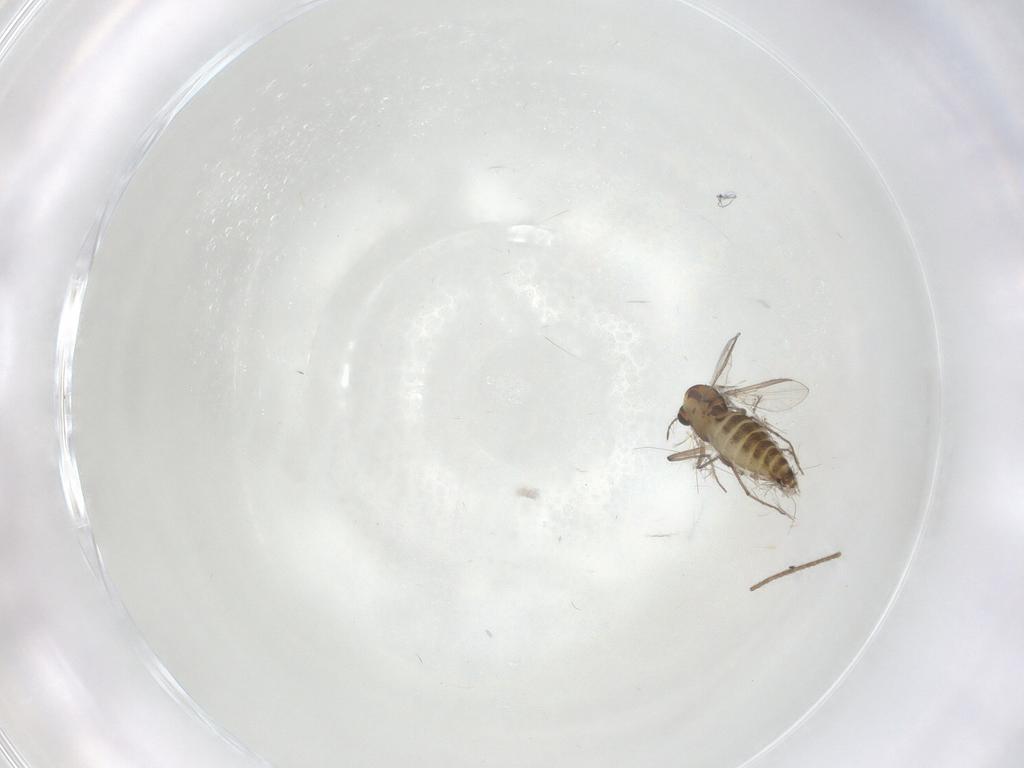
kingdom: Animalia
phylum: Arthropoda
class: Insecta
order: Diptera
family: Chironomidae
